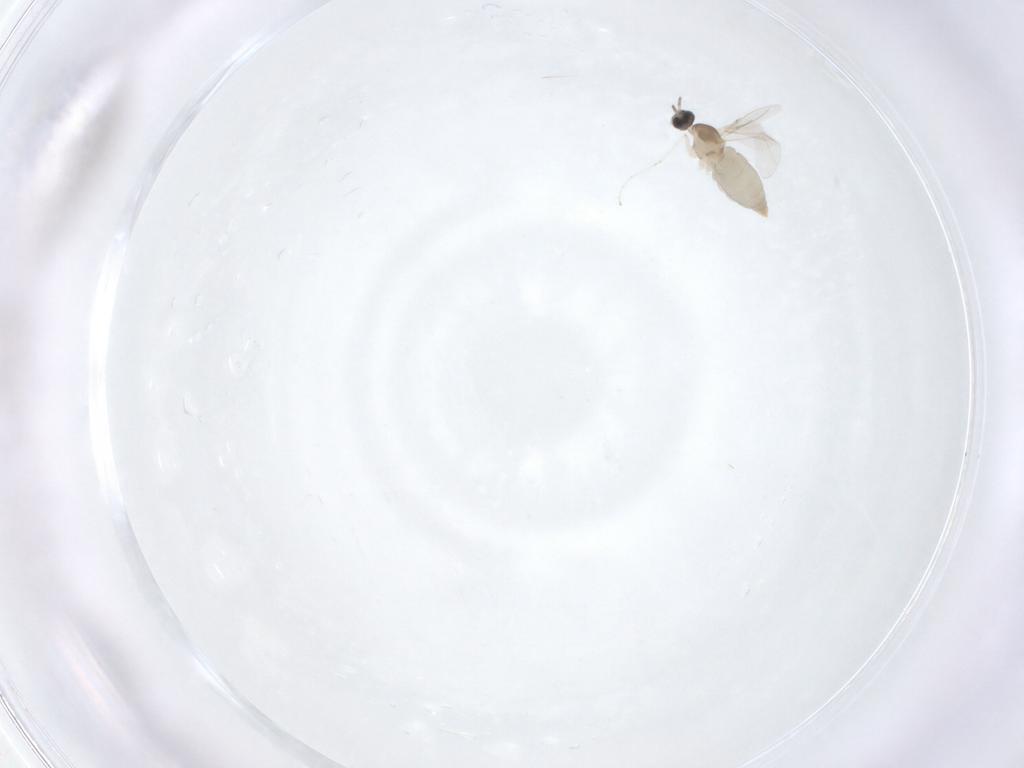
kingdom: Animalia
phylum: Arthropoda
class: Insecta
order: Diptera
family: Cecidomyiidae
